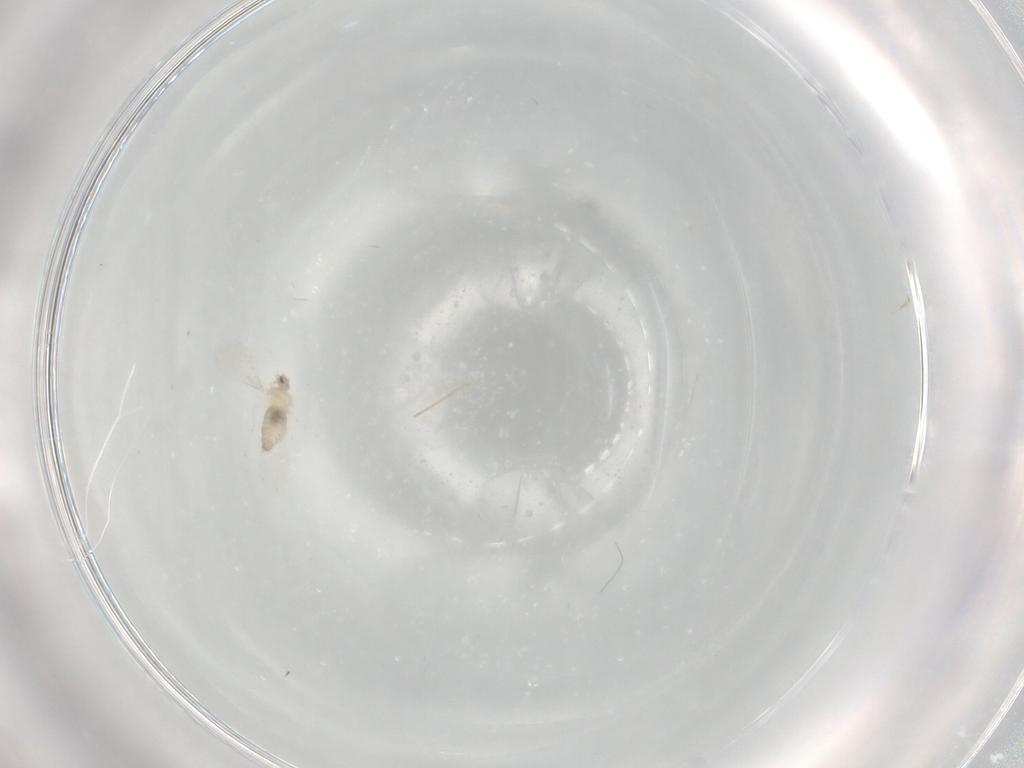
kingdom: Animalia
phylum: Arthropoda
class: Insecta
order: Diptera
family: Cecidomyiidae
